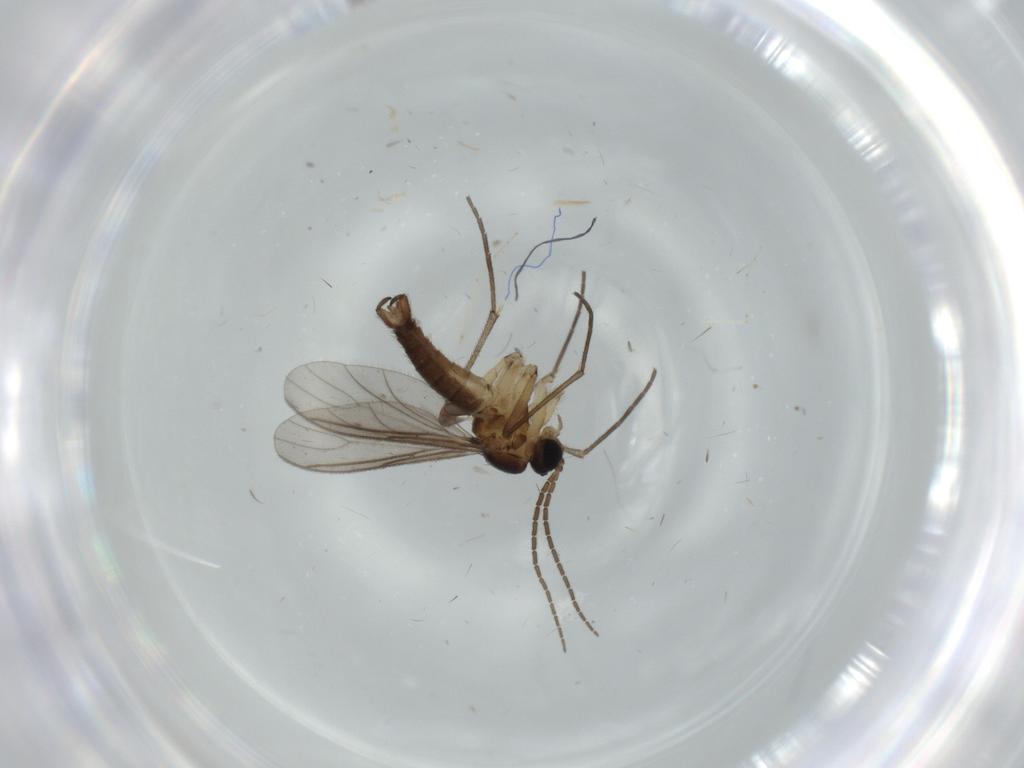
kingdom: Animalia
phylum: Arthropoda
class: Insecta
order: Diptera
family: Sciaridae
